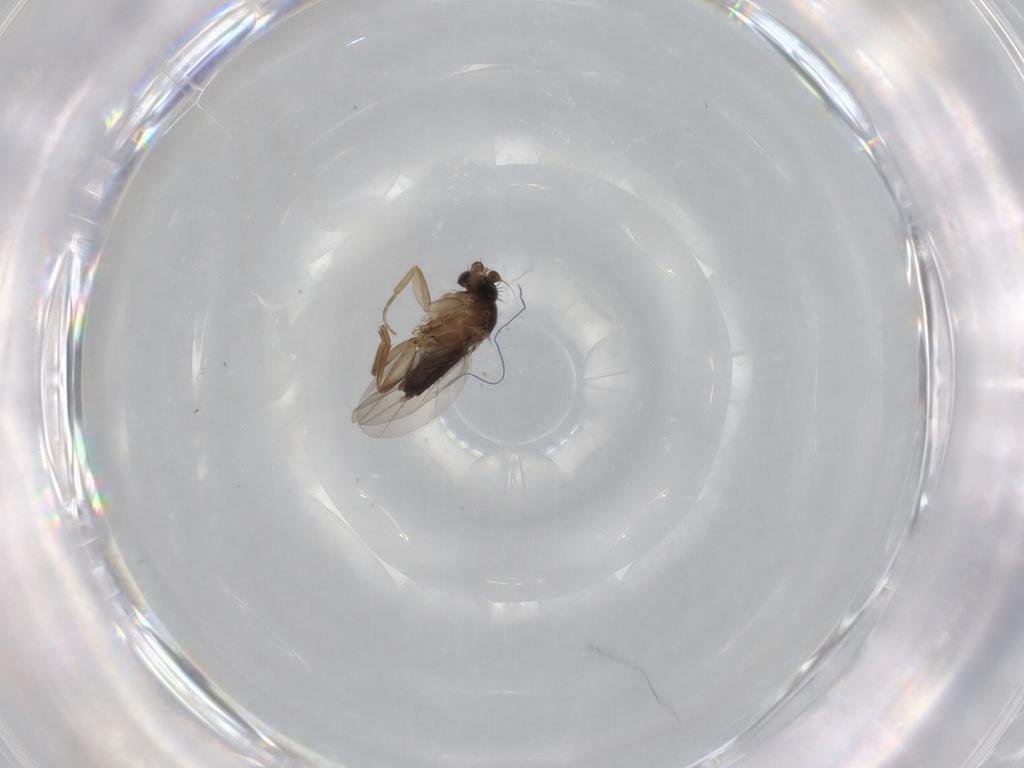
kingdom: Animalia
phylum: Arthropoda
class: Insecta
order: Diptera
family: Phoridae
